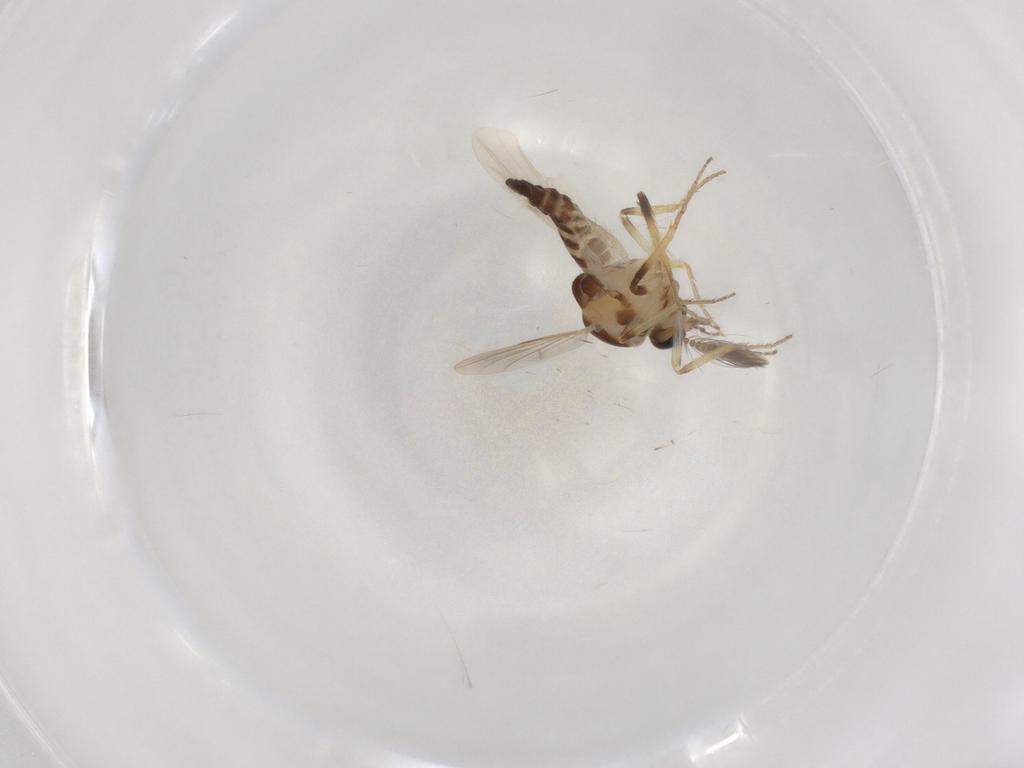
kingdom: Animalia
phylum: Arthropoda
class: Insecta
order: Diptera
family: Ceratopogonidae
